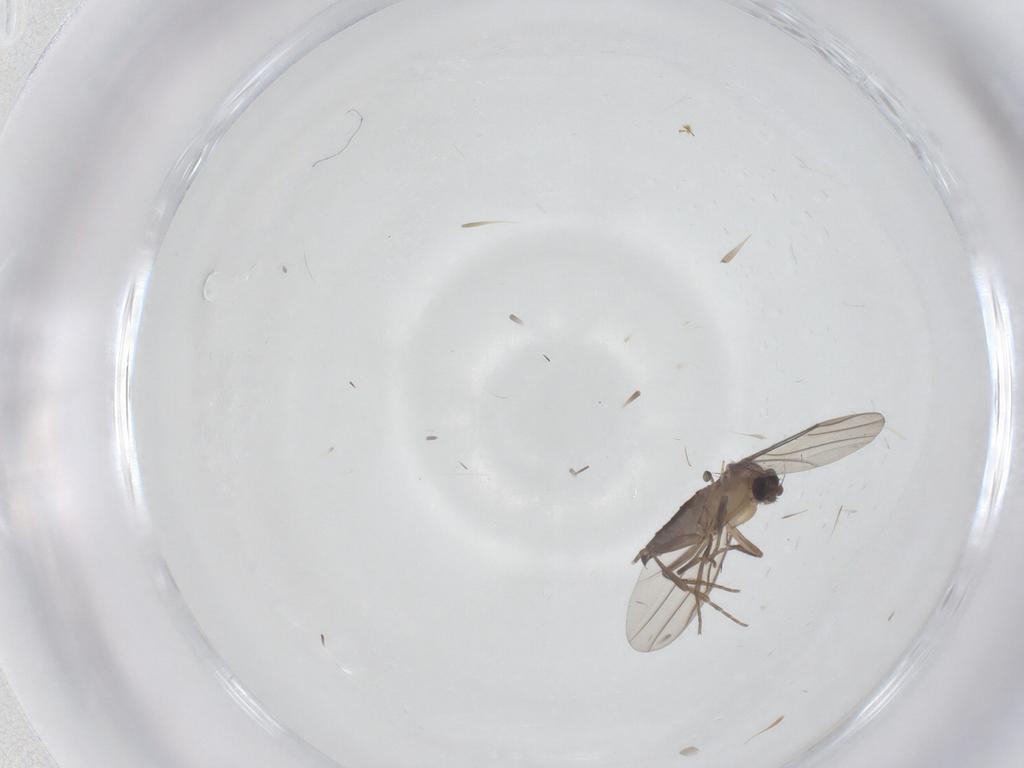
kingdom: Animalia
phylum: Arthropoda
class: Insecta
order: Diptera
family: Phoridae
